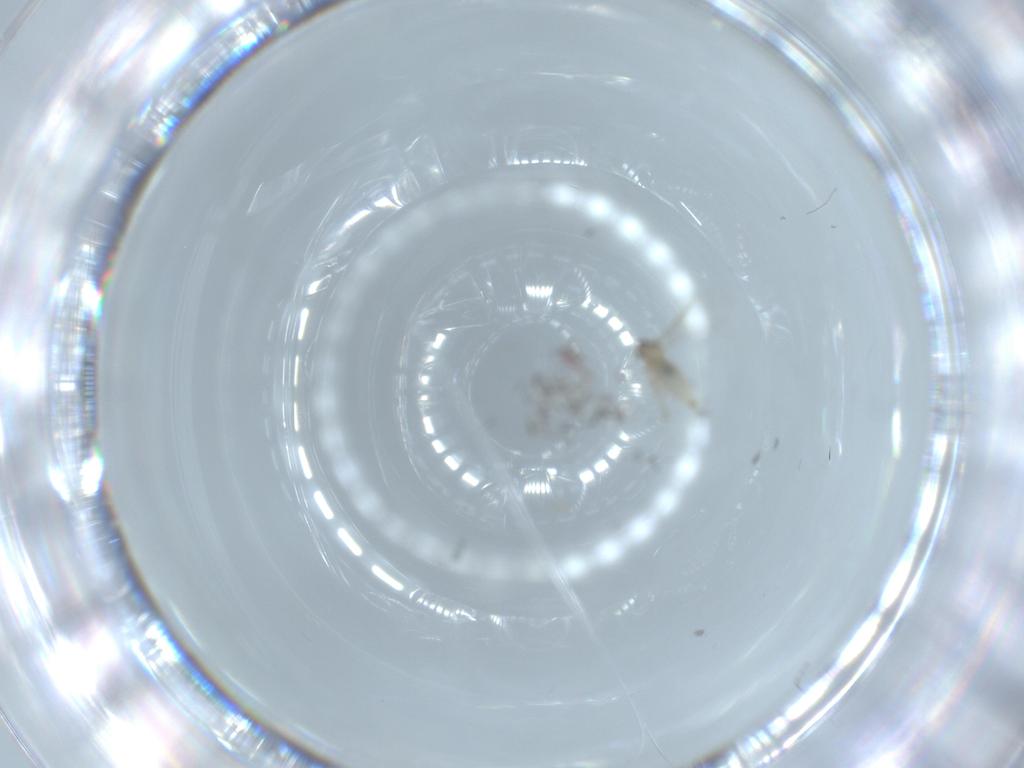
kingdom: Animalia
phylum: Arthropoda
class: Insecta
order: Diptera
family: Cecidomyiidae
